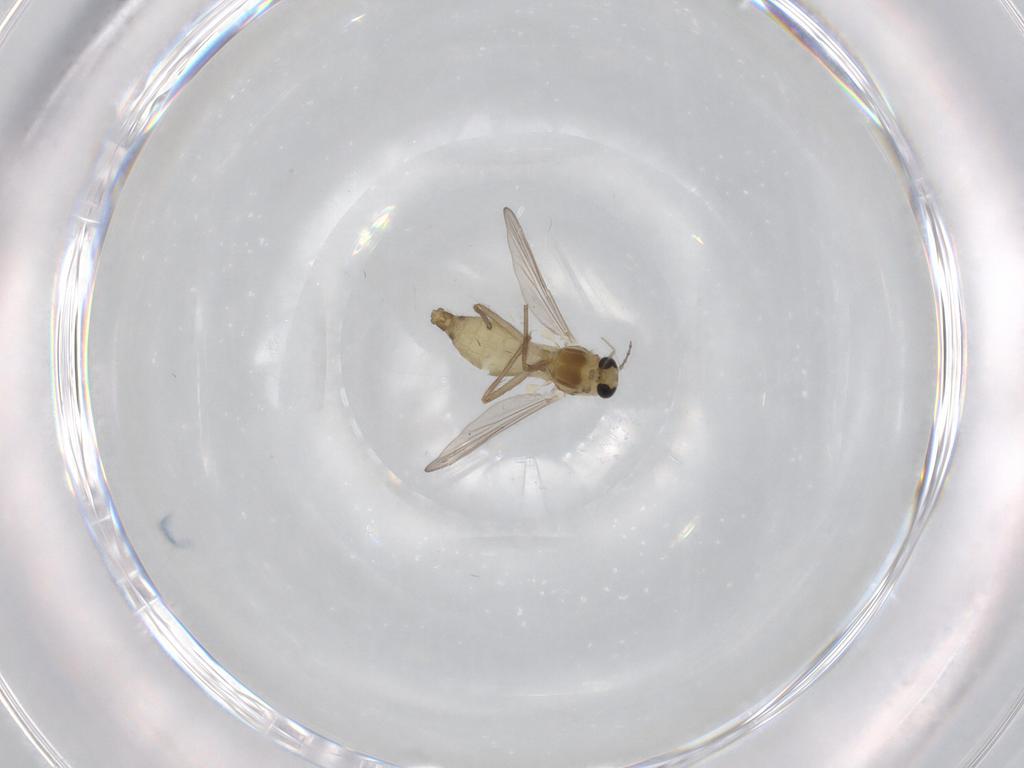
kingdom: Animalia
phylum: Arthropoda
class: Insecta
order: Diptera
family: Chironomidae
